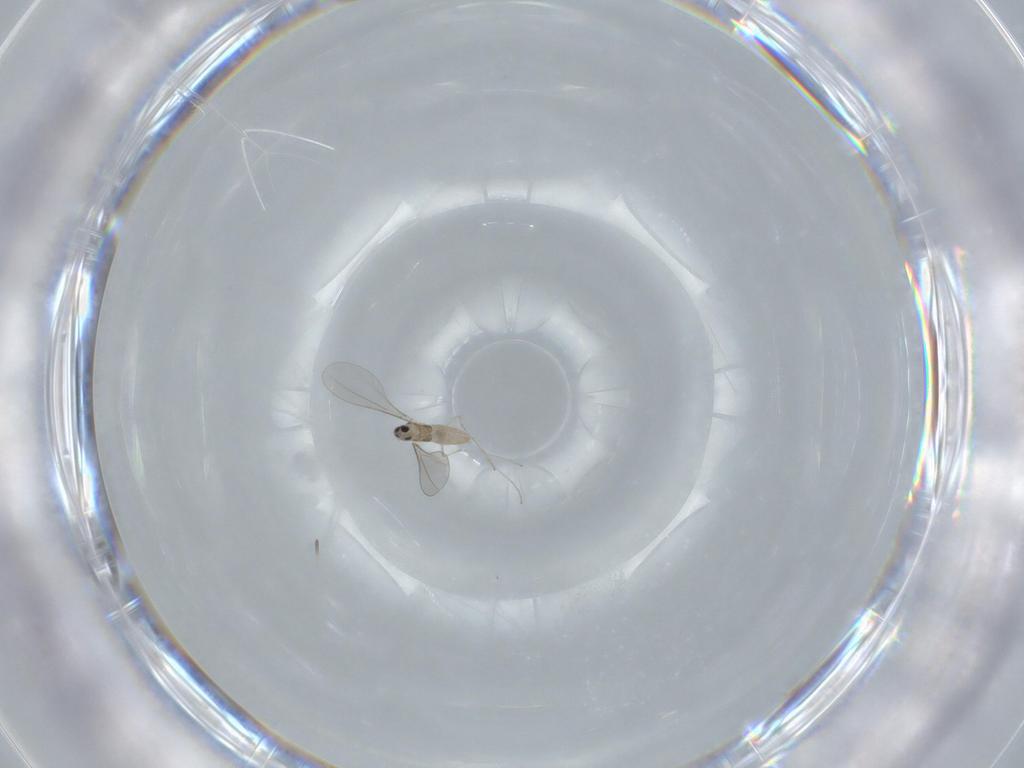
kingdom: Animalia
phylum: Arthropoda
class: Insecta
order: Diptera
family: Cecidomyiidae
